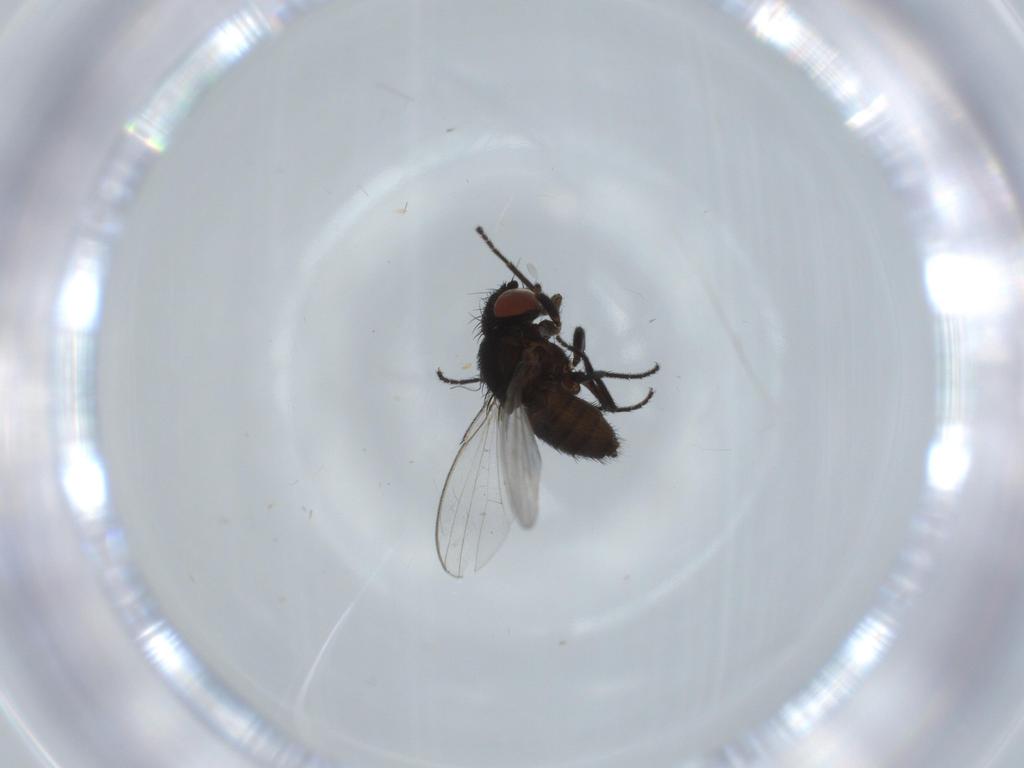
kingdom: Animalia
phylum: Arthropoda
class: Insecta
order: Diptera
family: Milichiidae
